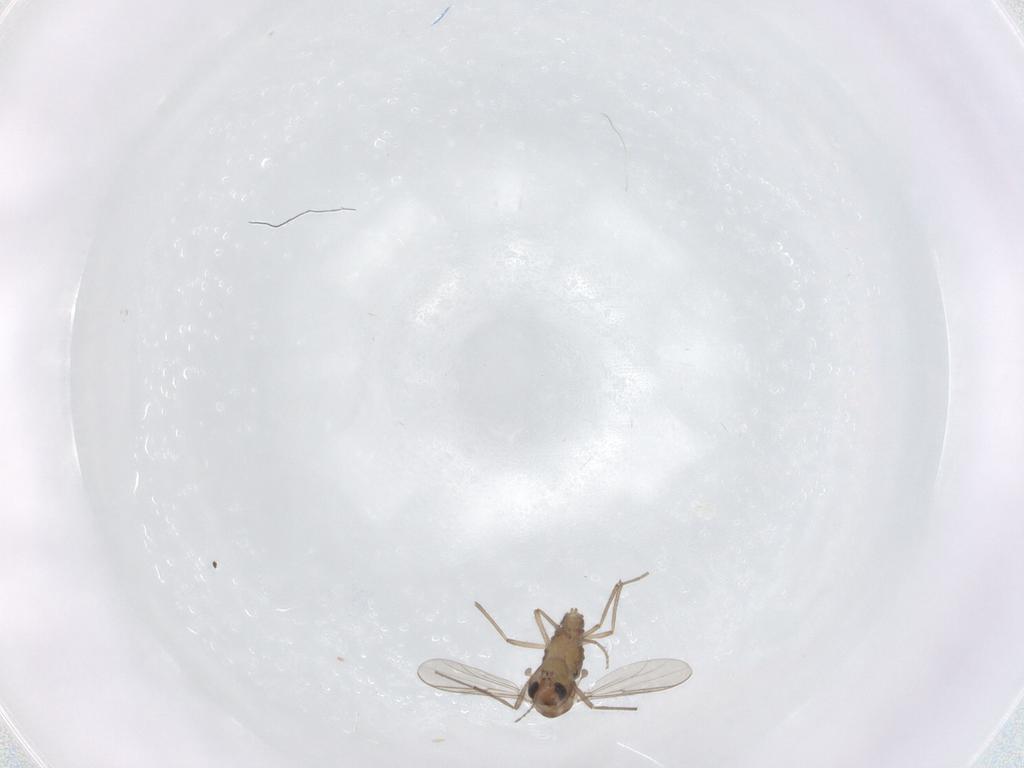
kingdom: Animalia
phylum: Arthropoda
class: Insecta
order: Diptera
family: Chironomidae
